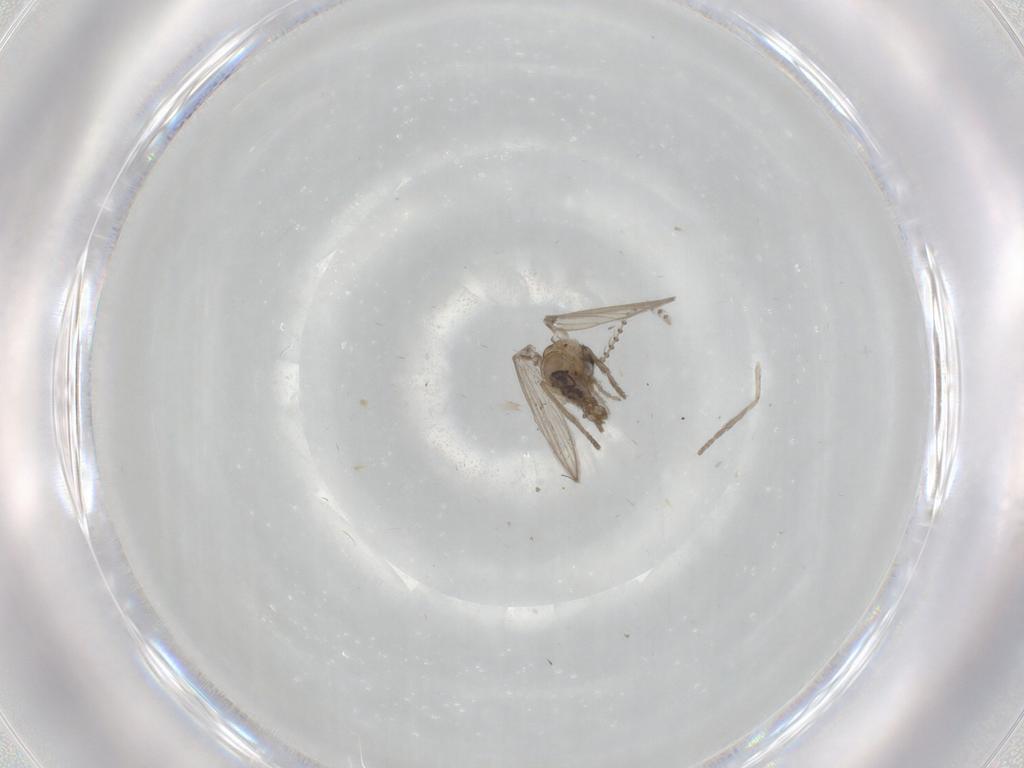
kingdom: Animalia
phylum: Arthropoda
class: Insecta
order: Diptera
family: Psychodidae
